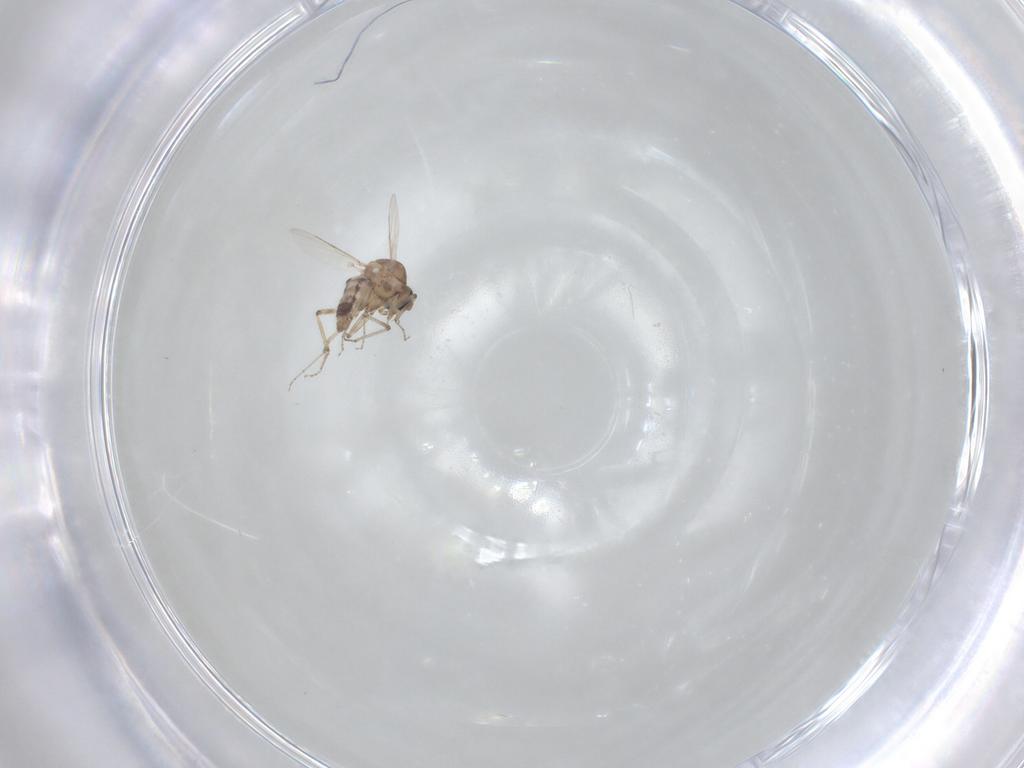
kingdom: Animalia
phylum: Arthropoda
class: Insecta
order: Diptera
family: Ceratopogonidae
